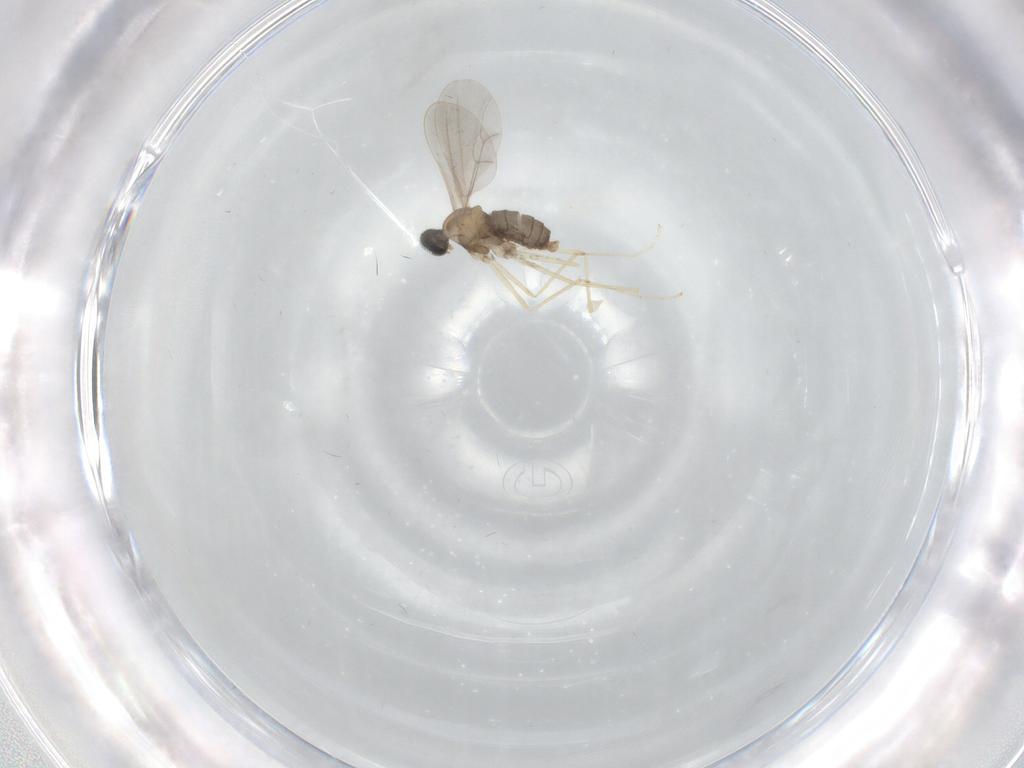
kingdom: Animalia
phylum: Arthropoda
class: Insecta
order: Diptera
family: Cecidomyiidae
